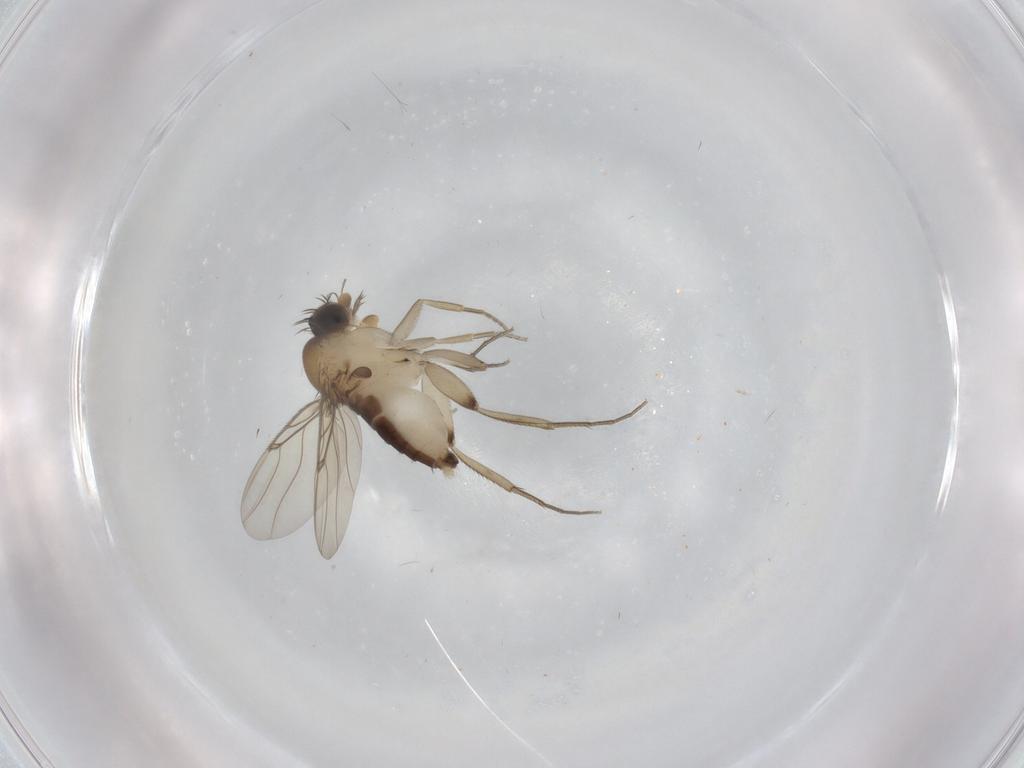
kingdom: Animalia
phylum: Arthropoda
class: Insecta
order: Diptera
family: Phoridae
